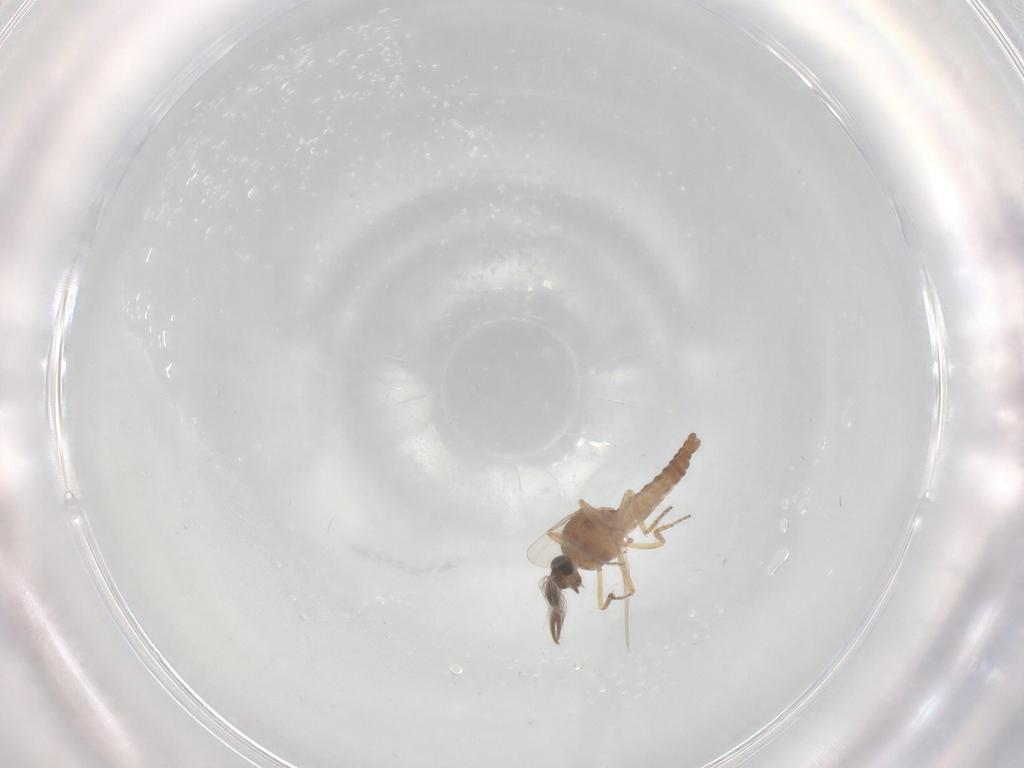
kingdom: Animalia
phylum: Arthropoda
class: Insecta
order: Diptera
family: Ceratopogonidae
